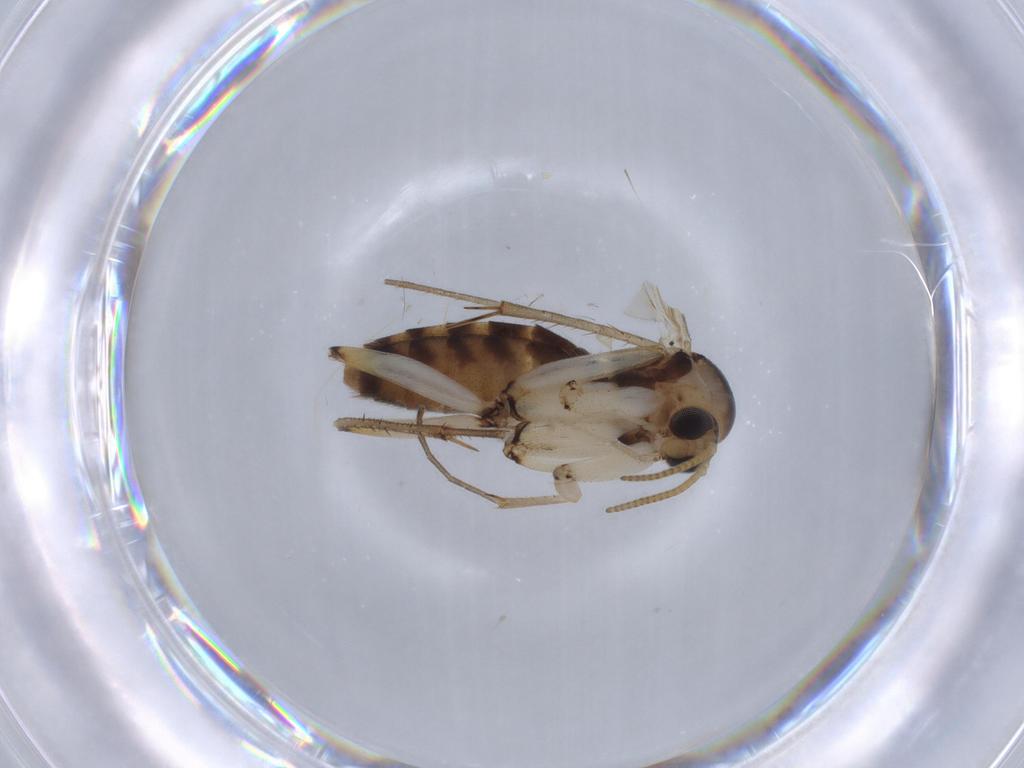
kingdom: Animalia
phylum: Arthropoda
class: Insecta
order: Diptera
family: Mycetophilidae
